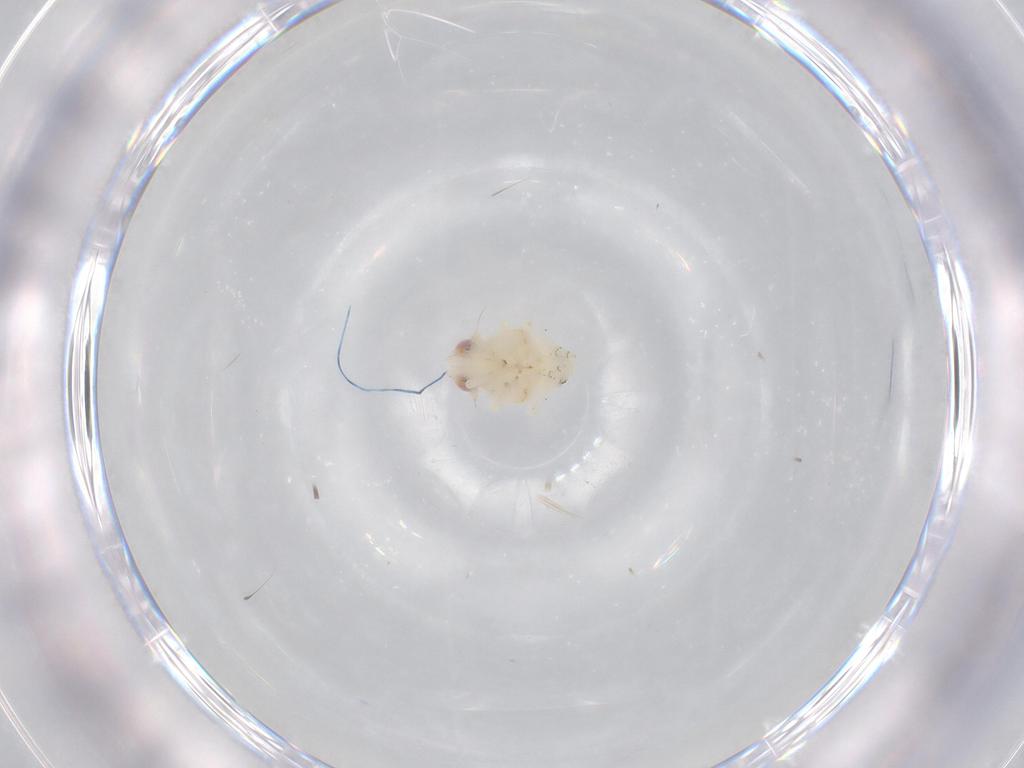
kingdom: Animalia
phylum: Arthropoda
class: Insecta
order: Hemiptera
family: Nogodinidae
